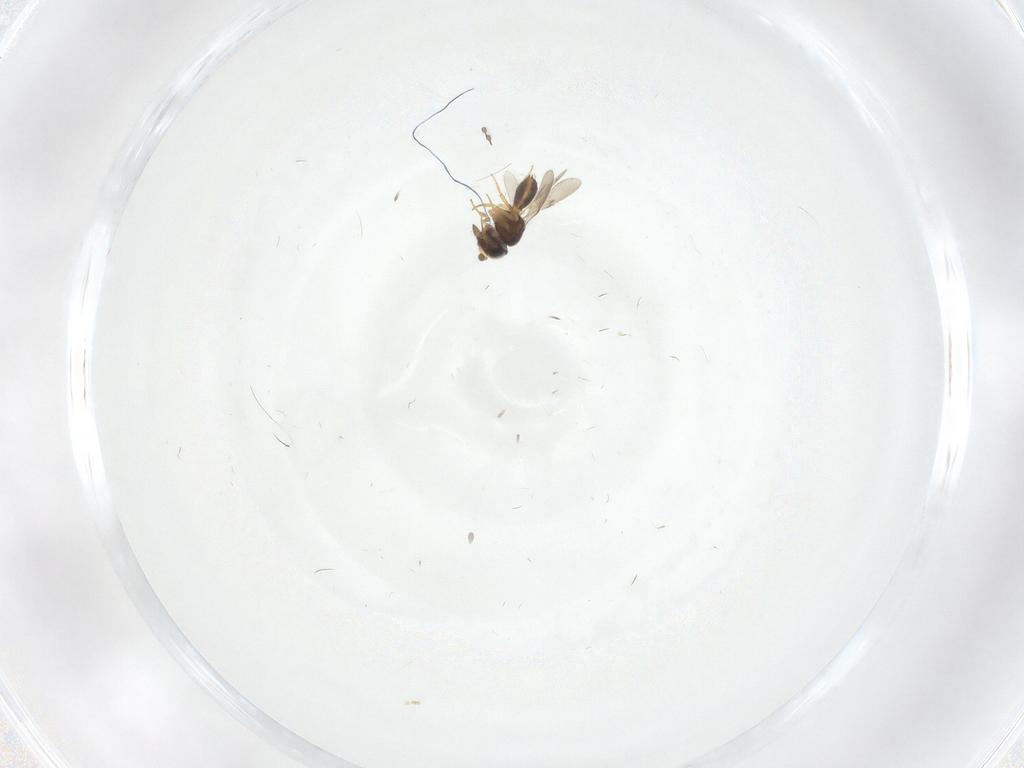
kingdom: Animalia
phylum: Arthropoda
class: Insecta
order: Hymenoptera
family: Scelionidae
